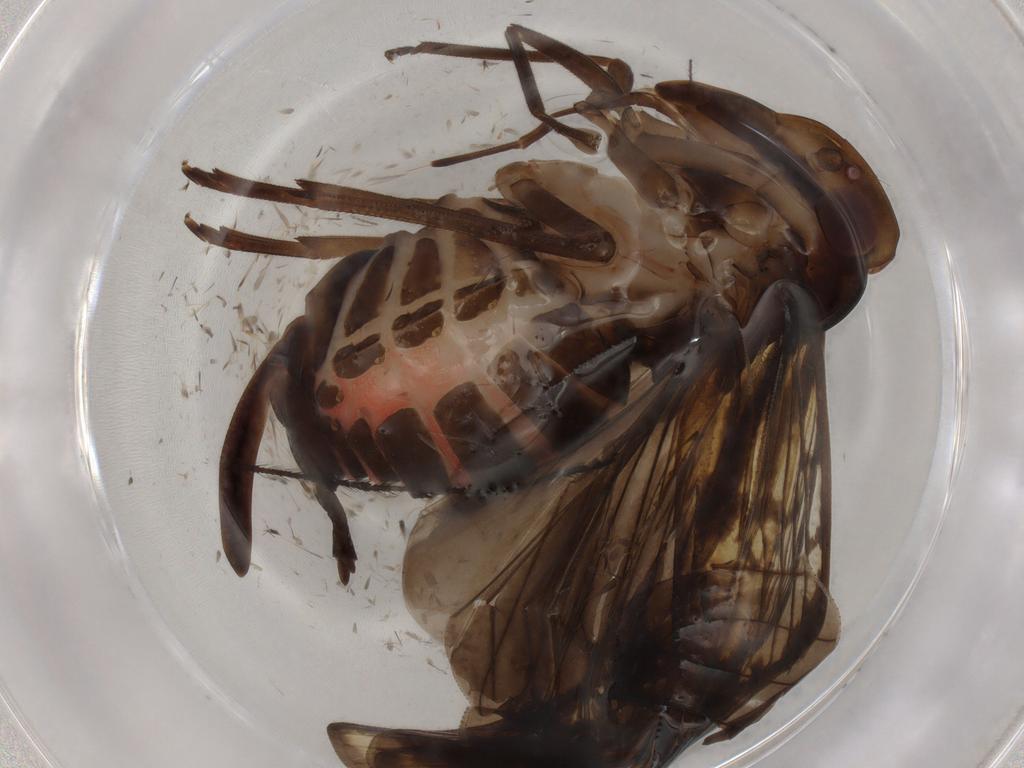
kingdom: Animalia
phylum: Arthropoda
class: Insecta
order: Hemiptera
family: Cixiidae
